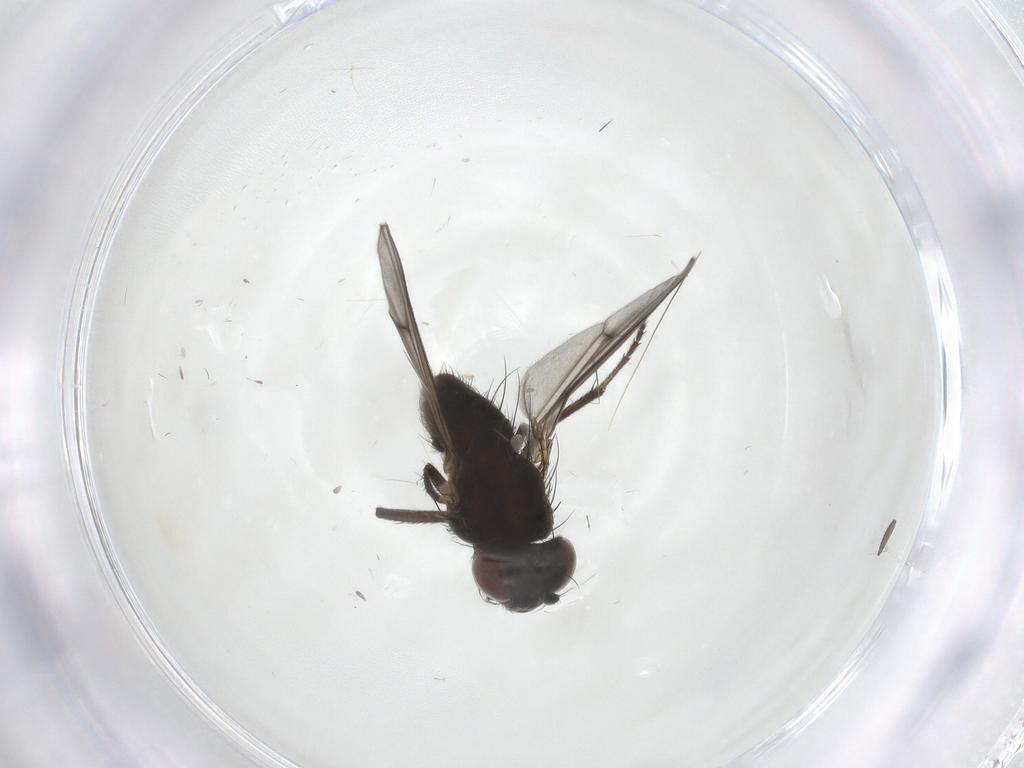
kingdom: Animalia
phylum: Arthropoda
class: Insecta
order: Diptera
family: Ephydridae
